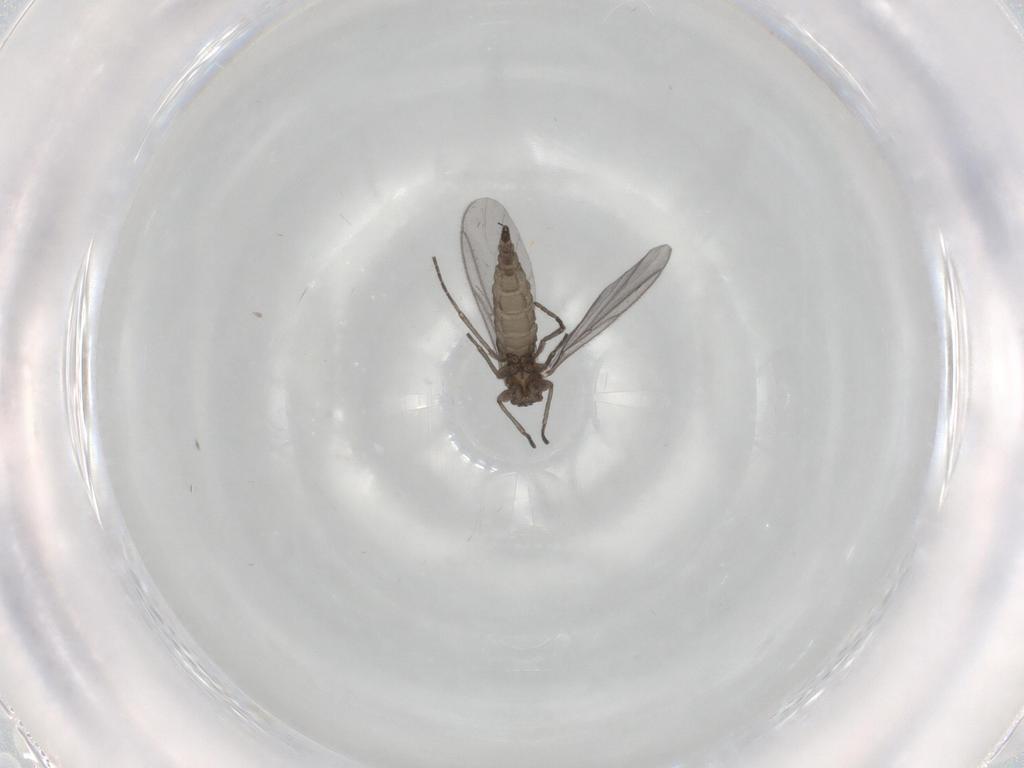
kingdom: Animalia
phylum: Arthropoda
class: Insecta
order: Diptera
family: Sciaridae
